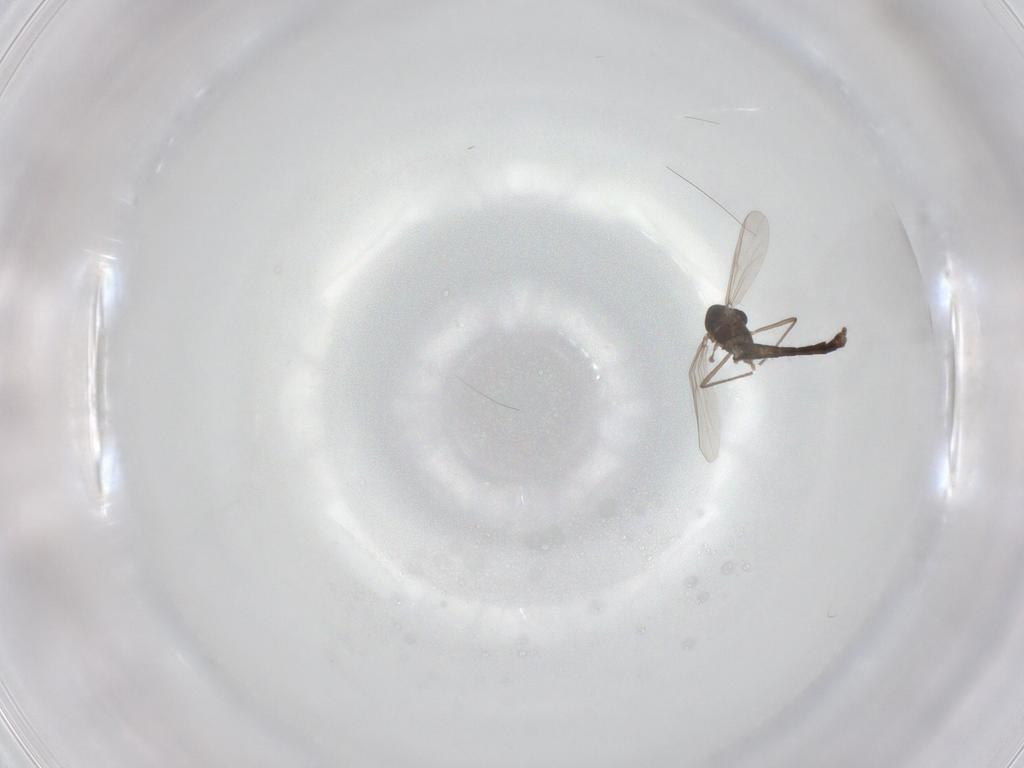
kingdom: Animalia
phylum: Arthropoda
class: Insecta
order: Diptera
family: Chironomidae
